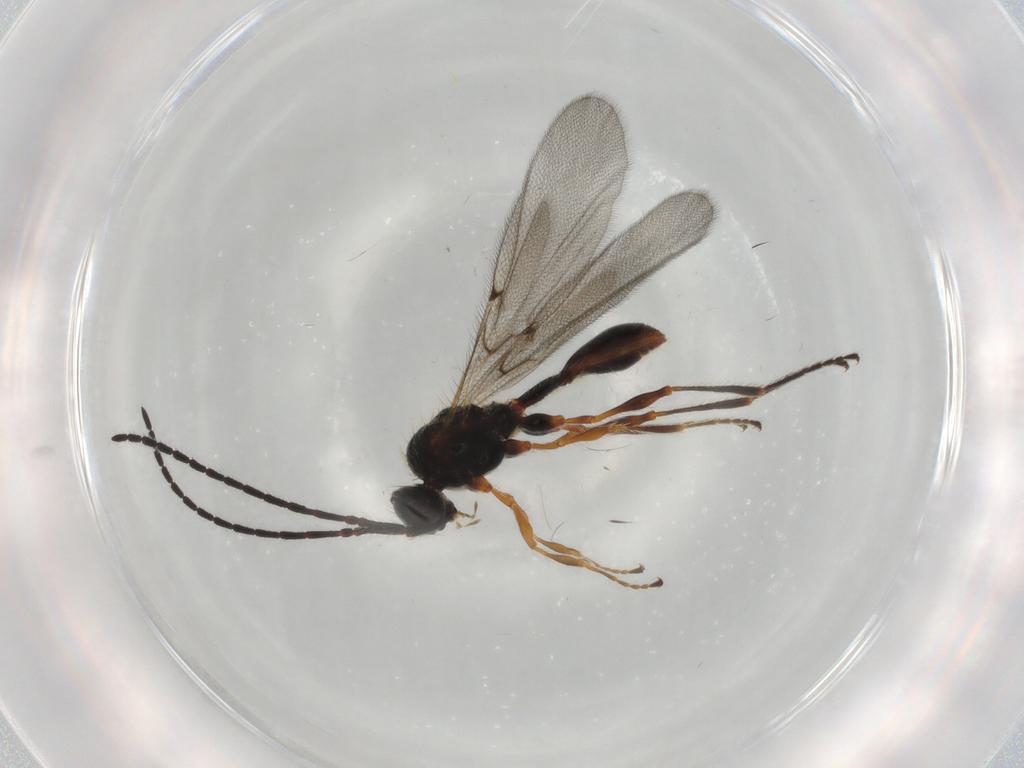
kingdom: Animalia
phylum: Arthropoda
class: Insecta
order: Hymenoptera
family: Diapriidae
